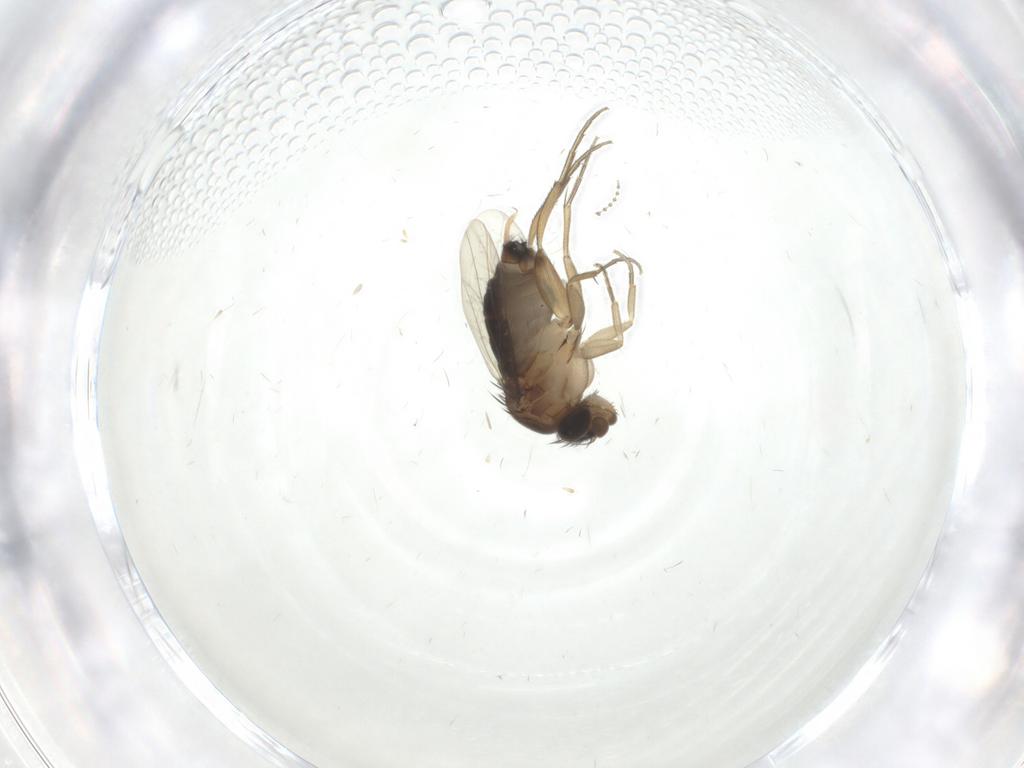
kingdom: Animalia
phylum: Arthropoda
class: Insecta
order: Diptera
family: Phoridae
